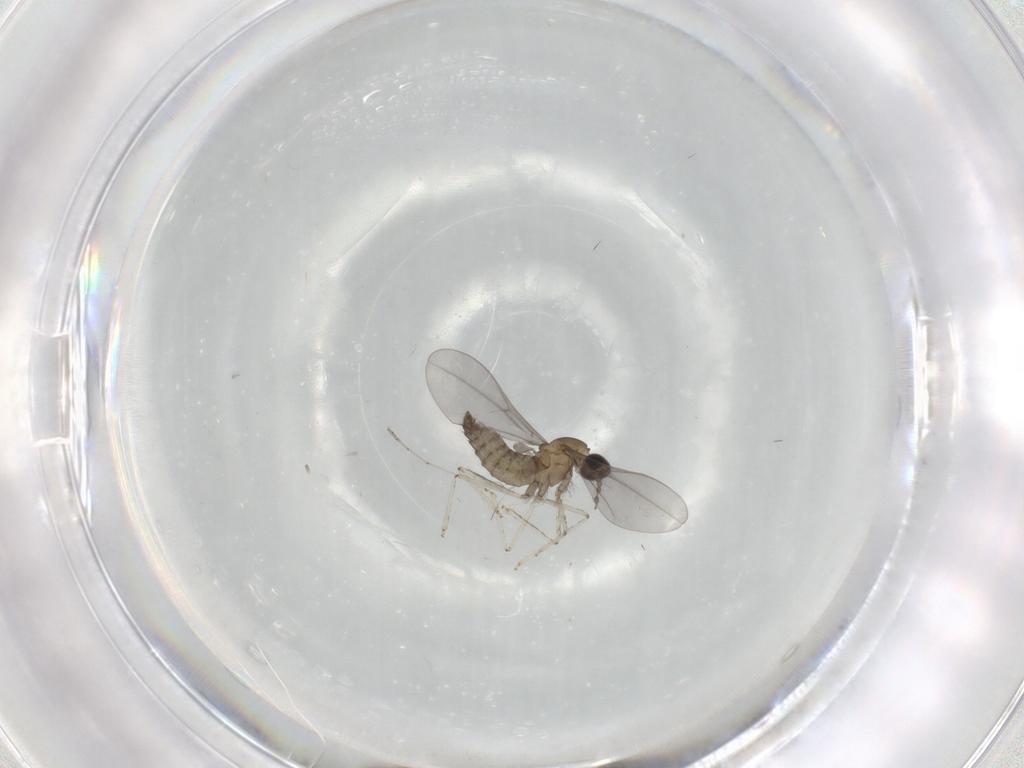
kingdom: Animalia
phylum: Arthropoda
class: Insecta
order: Diptera
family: Cecidomyiidae
